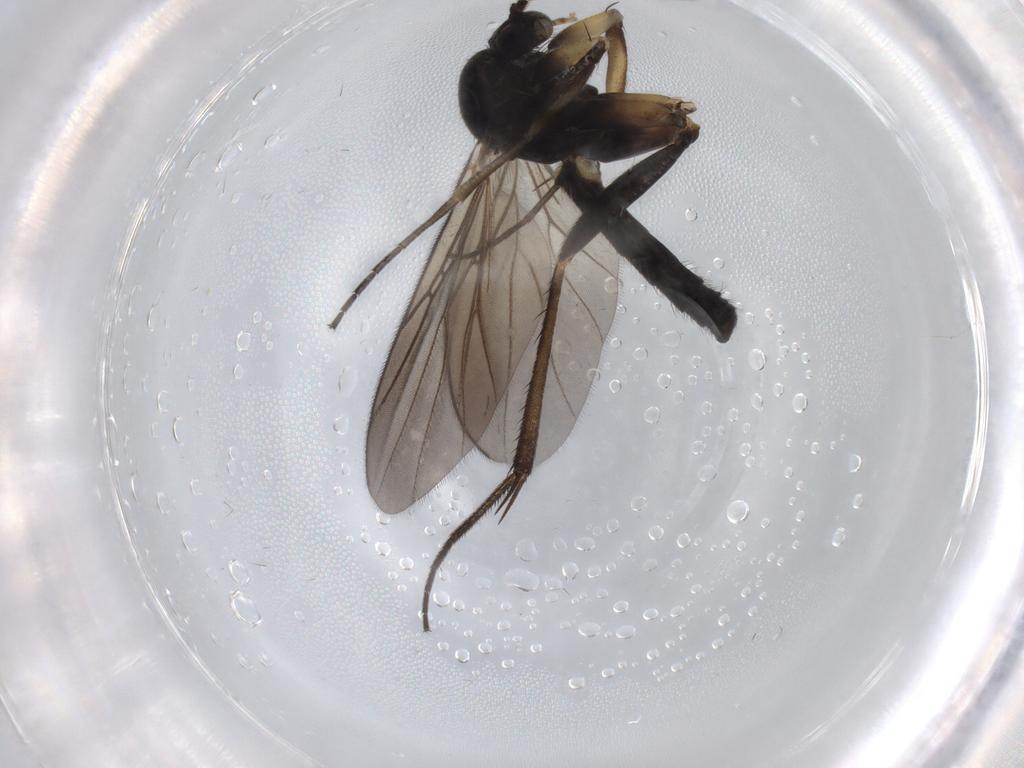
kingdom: Animalia
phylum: Arthropoda
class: Insecta
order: Diptera
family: Mycetophilidae
